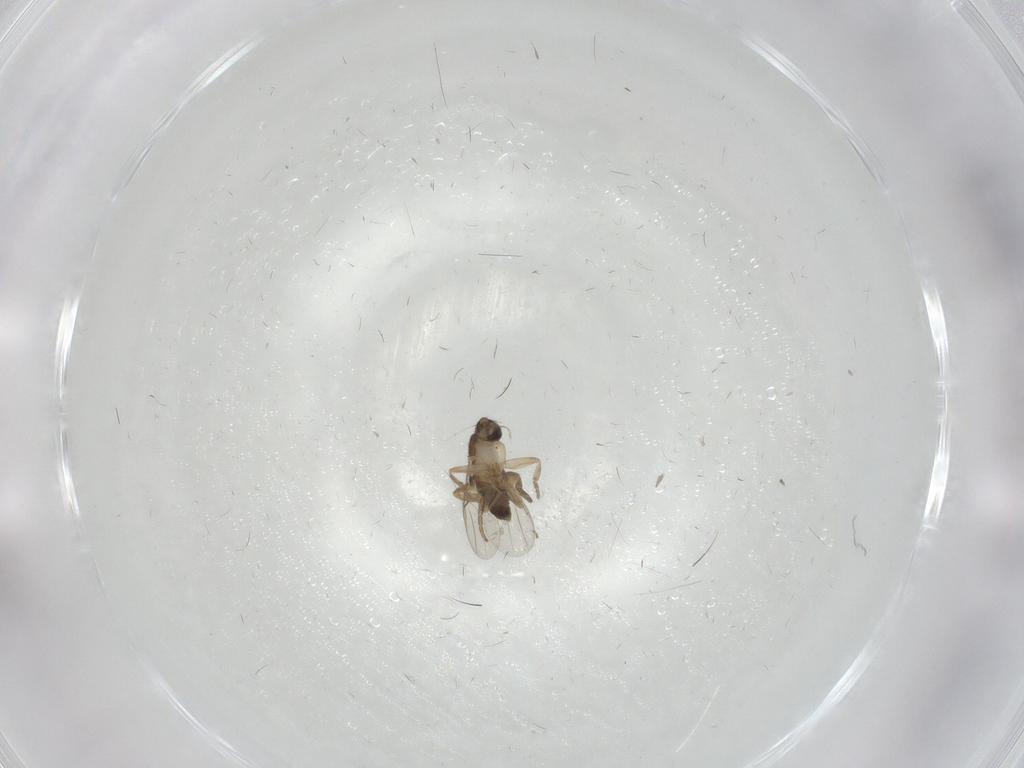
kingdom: Animalia
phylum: Arthropoda
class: Insecta
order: Diptera
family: Phoridae
